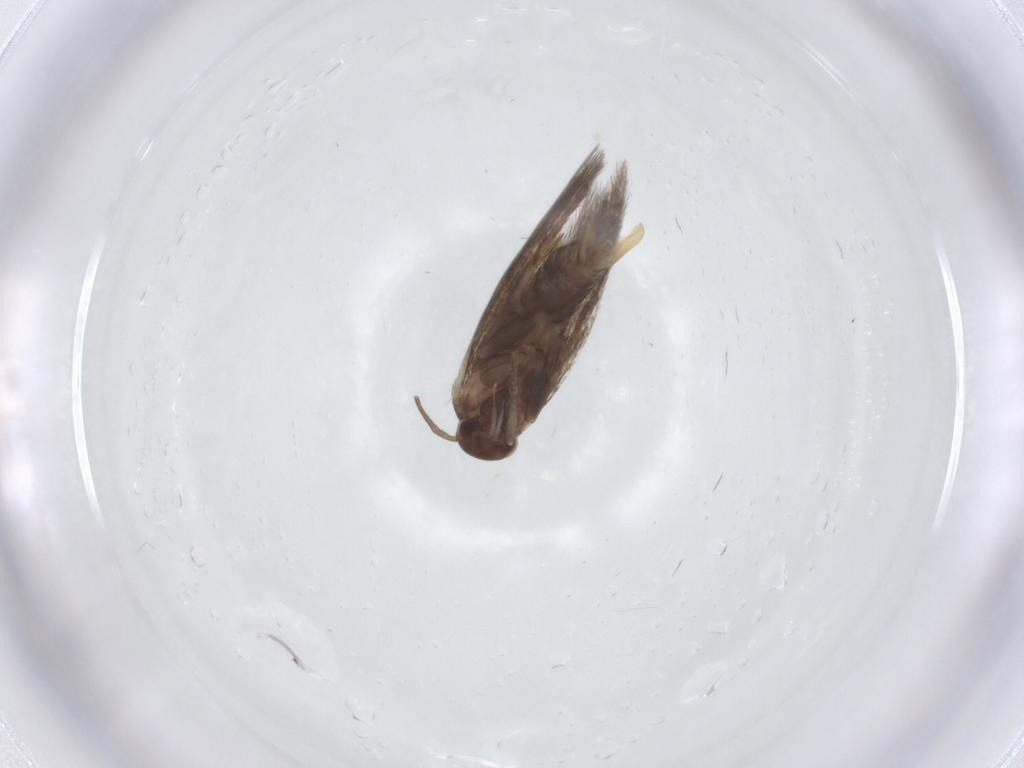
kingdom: Animalia
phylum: Arthropoda
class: Insecta
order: Lepidoptera
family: Elachistidae
